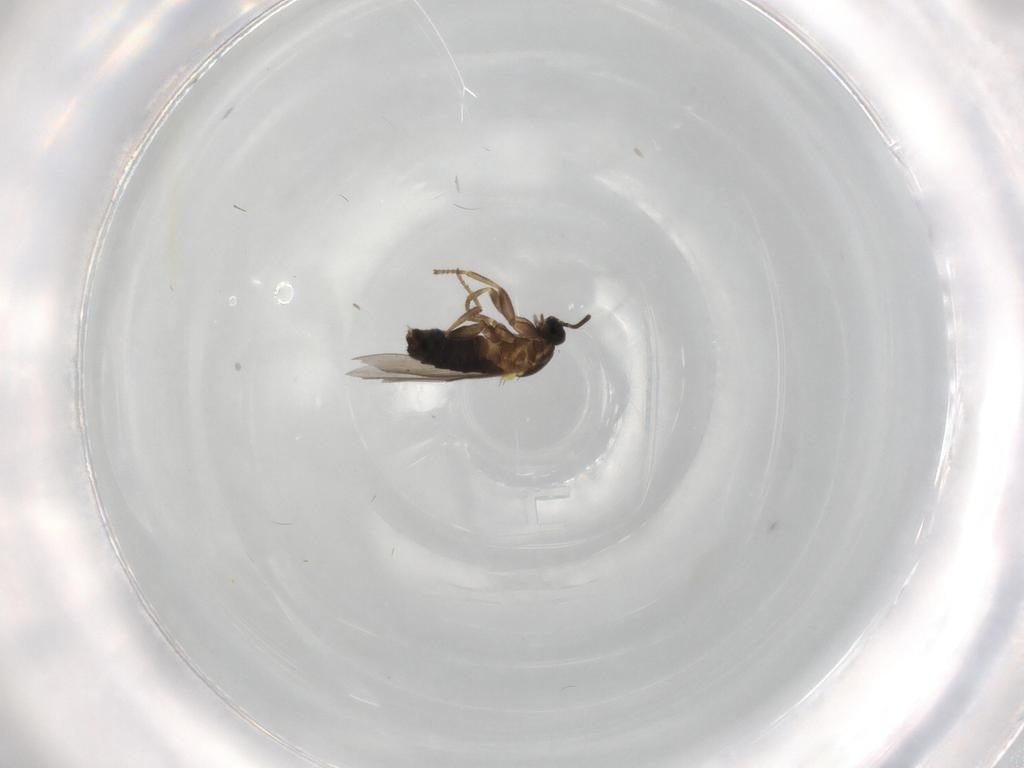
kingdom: Animalia
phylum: Arthropoda
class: Insecta
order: Diptera
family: Scatopsidae
